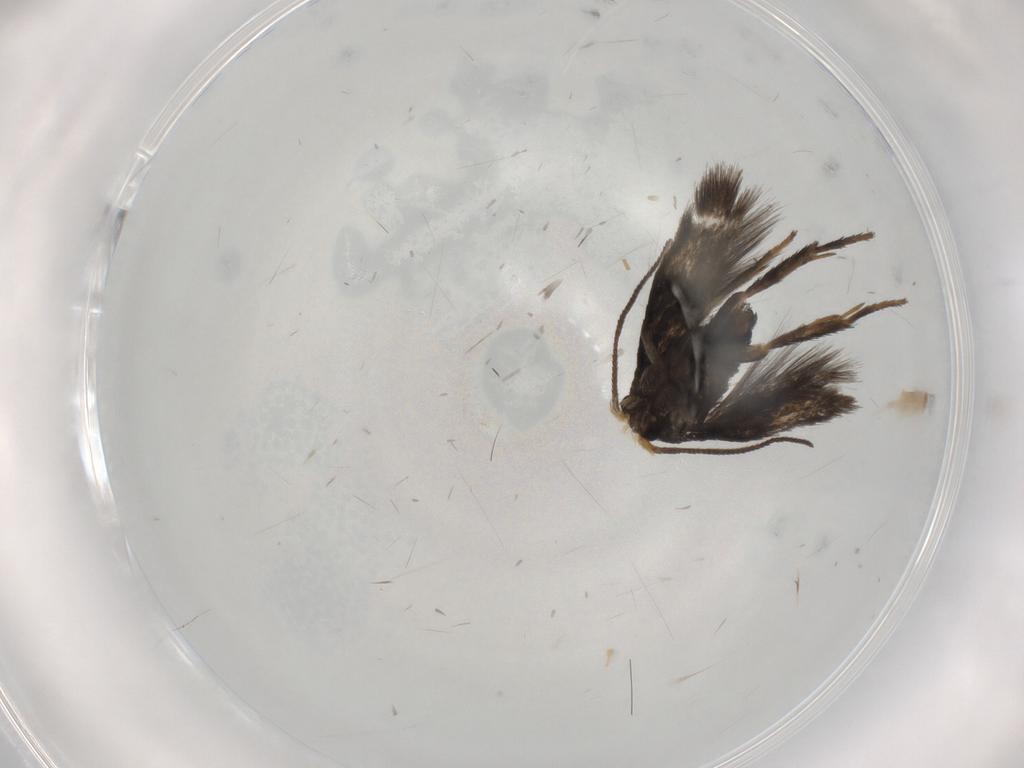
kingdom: Animalia
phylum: Arthropoda
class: Insecta
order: Lepidoptera
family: Nepticulidae
